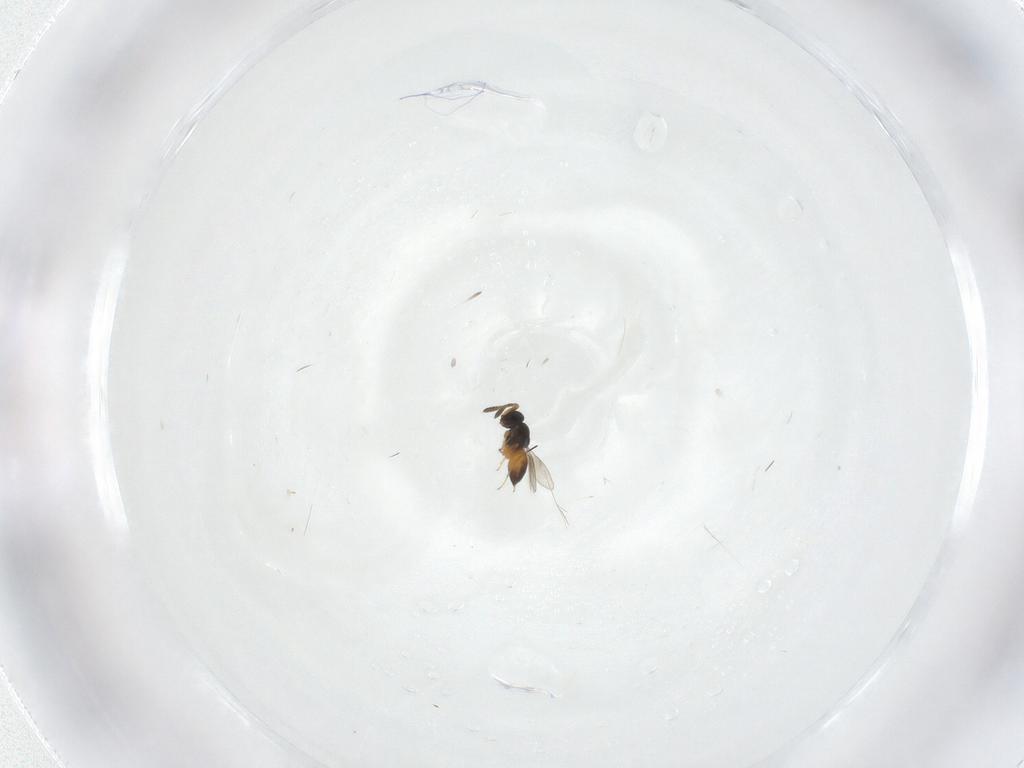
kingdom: Animalia
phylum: Arthropoda
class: Insecta
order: Hymenoptera
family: Scelionidae
